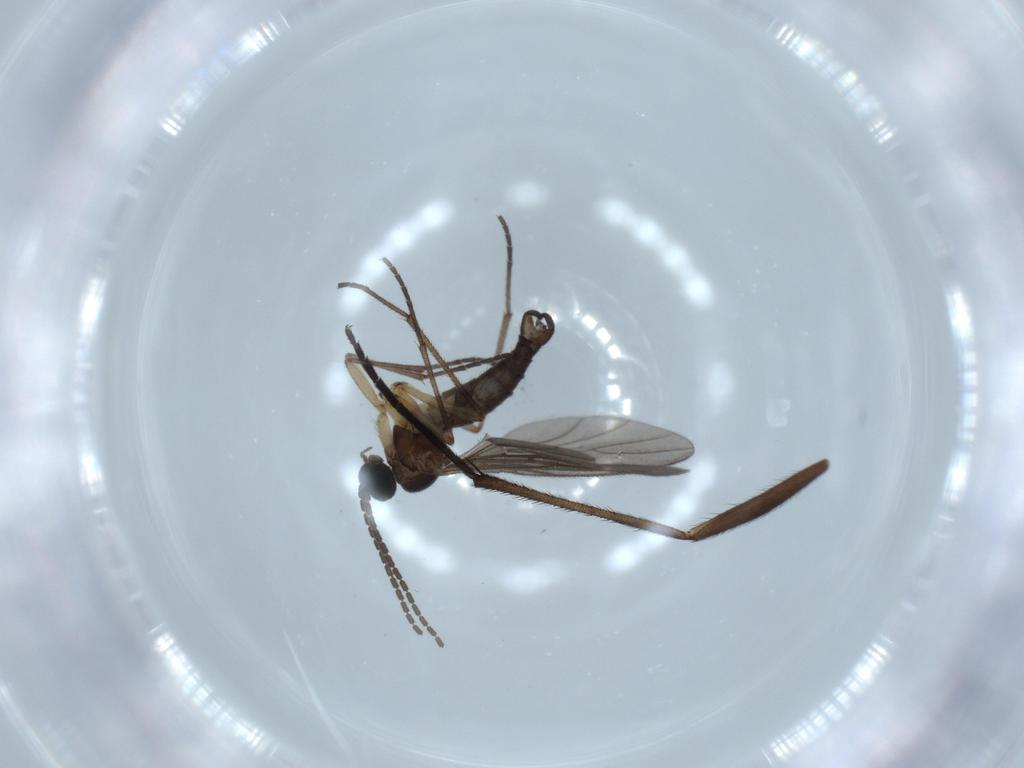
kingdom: Animalia
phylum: Arthropoda
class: Insecta
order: Diptera
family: Sciaridae
